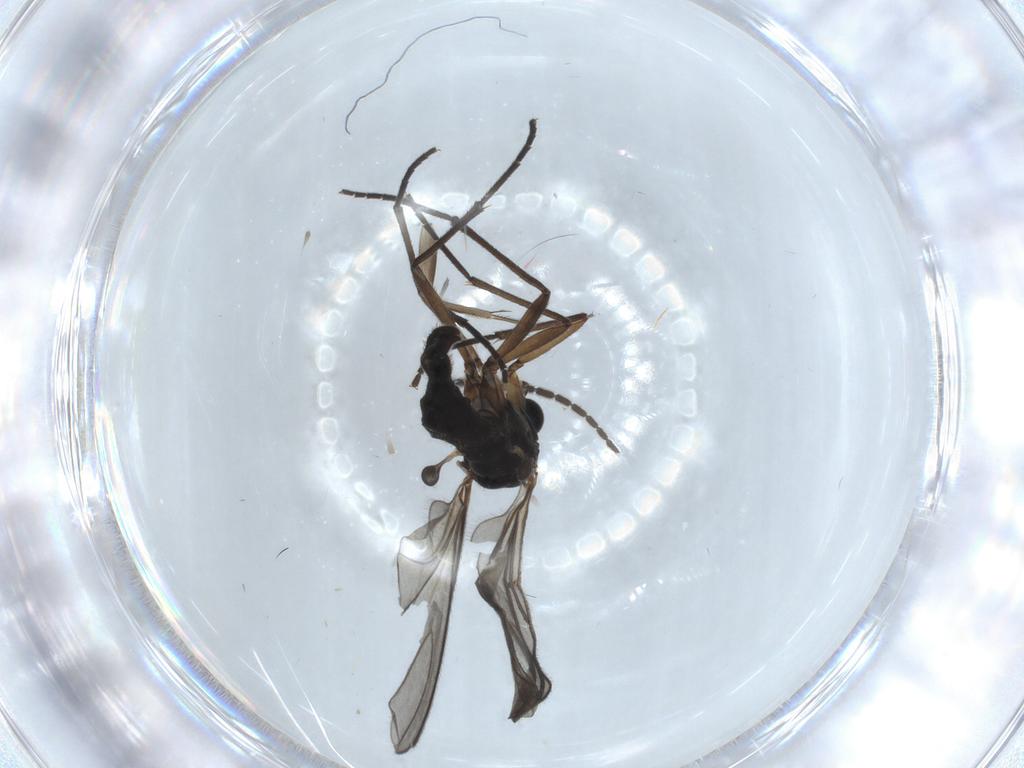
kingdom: Animalia
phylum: Arthropoda
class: Insecta
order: Diptera
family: Sciaridae
